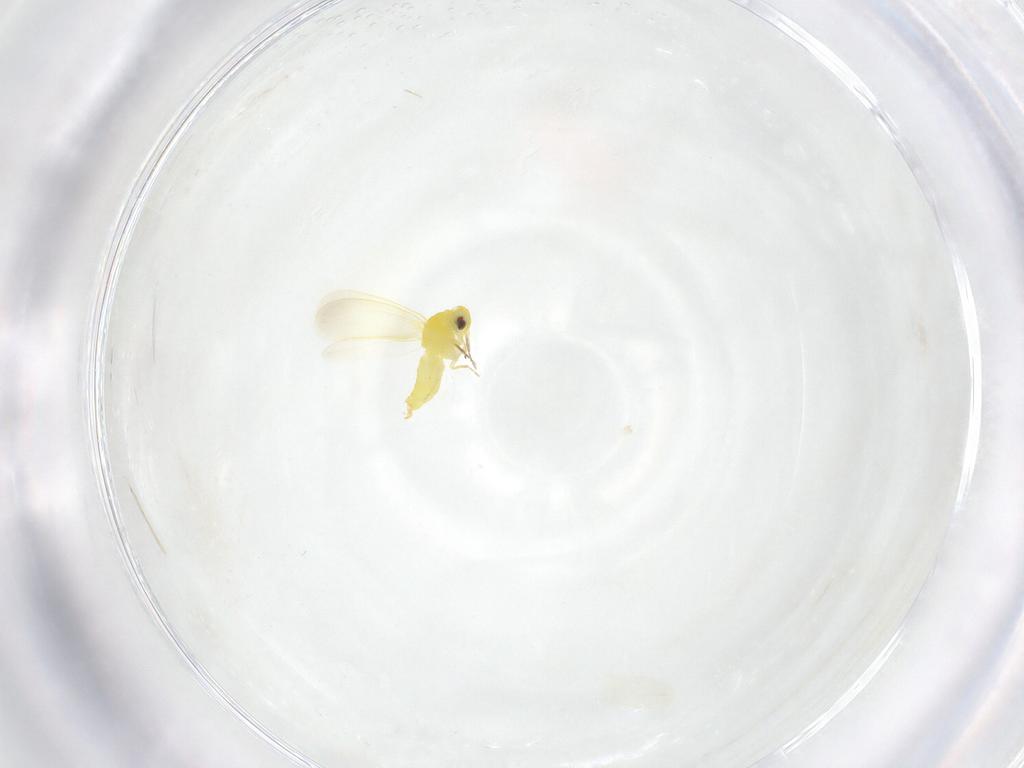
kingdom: Animalia
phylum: Arthropoda
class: Insecta
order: Hemiptera
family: Aleyrodidae
